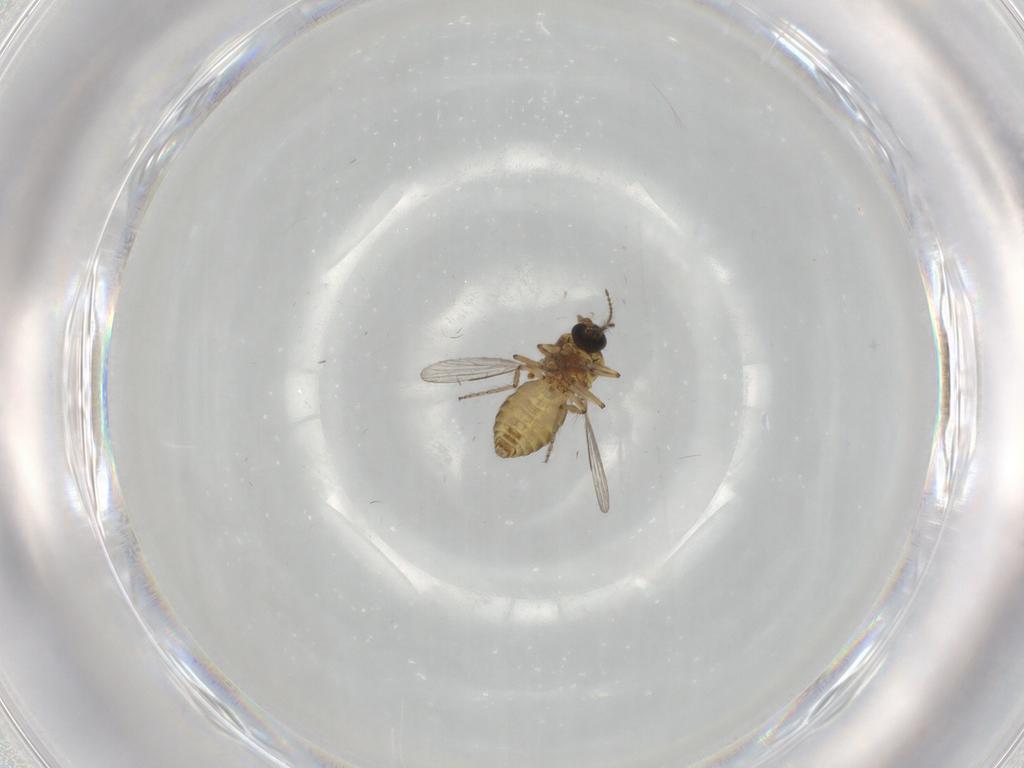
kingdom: Animalia
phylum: Arthropoda
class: Insecta
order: Diptera
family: Ceratopogonidae
